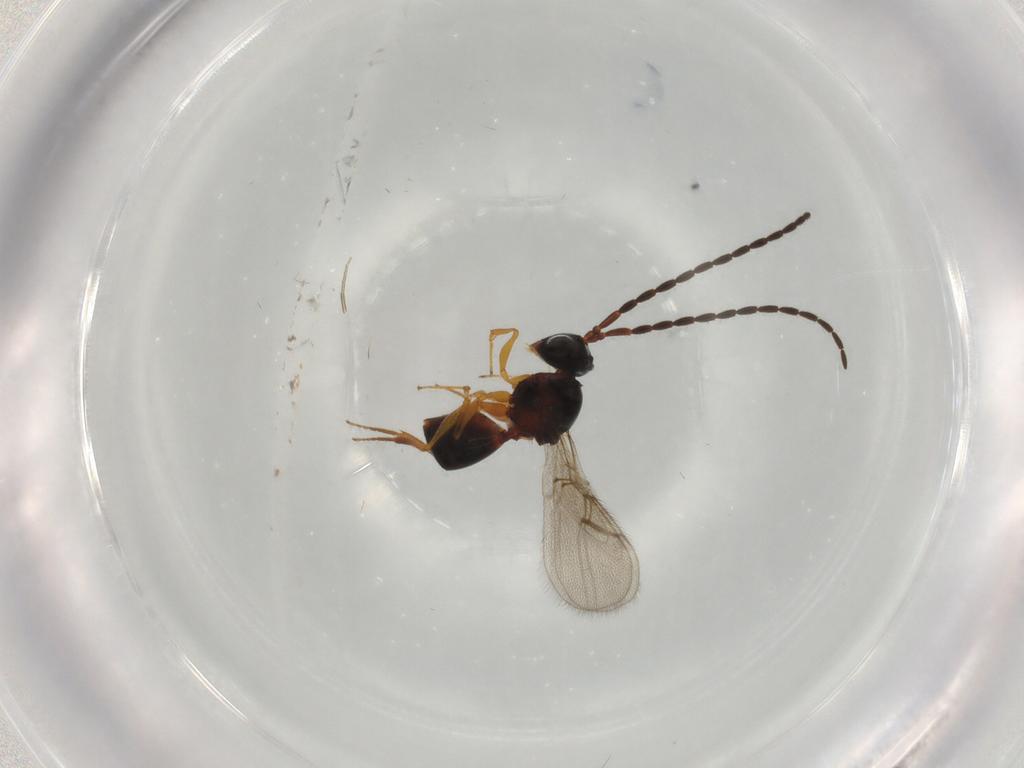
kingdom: Animalia
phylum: Arthropoda
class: Insecta
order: Hymenoptera
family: Figitidae
